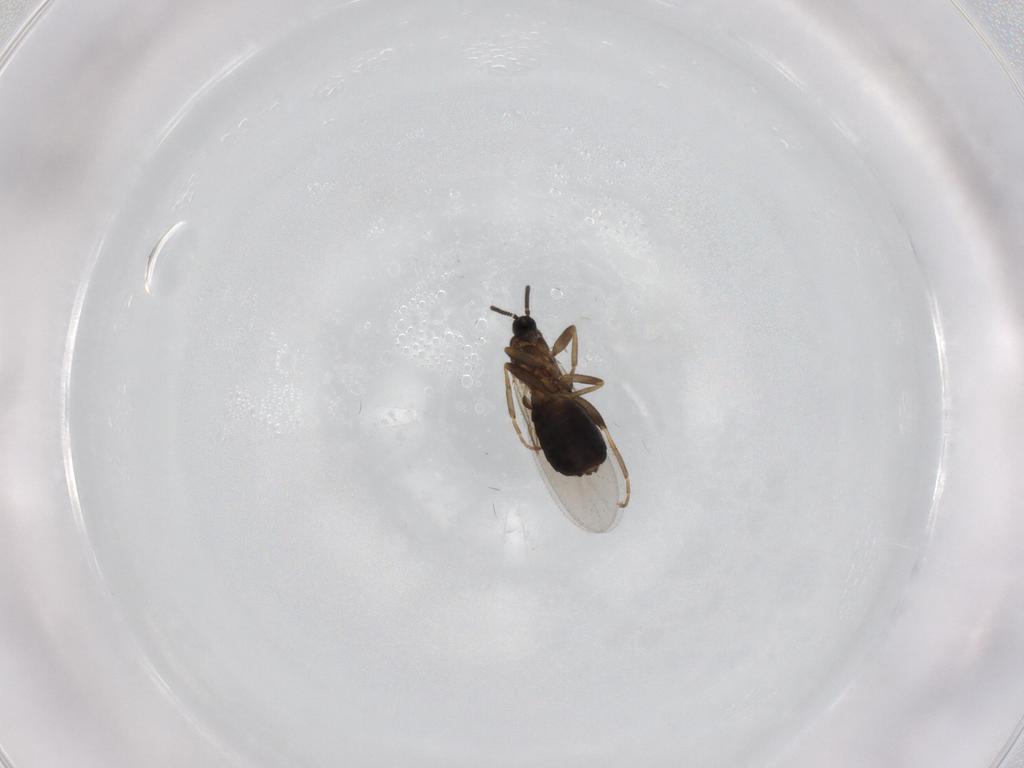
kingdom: Animalia
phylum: Arthropoda
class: Insecta
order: Diptera
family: Scatopsidae
